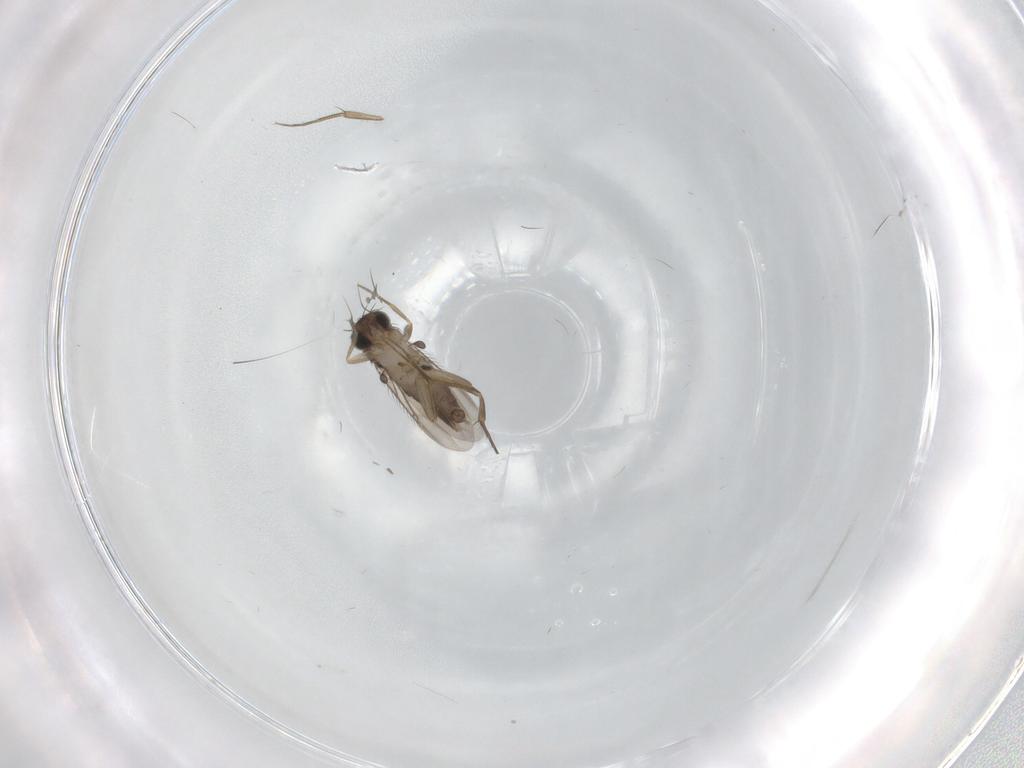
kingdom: Animalia
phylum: Arthropoda
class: Insecta
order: Diptera
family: Phoridae
